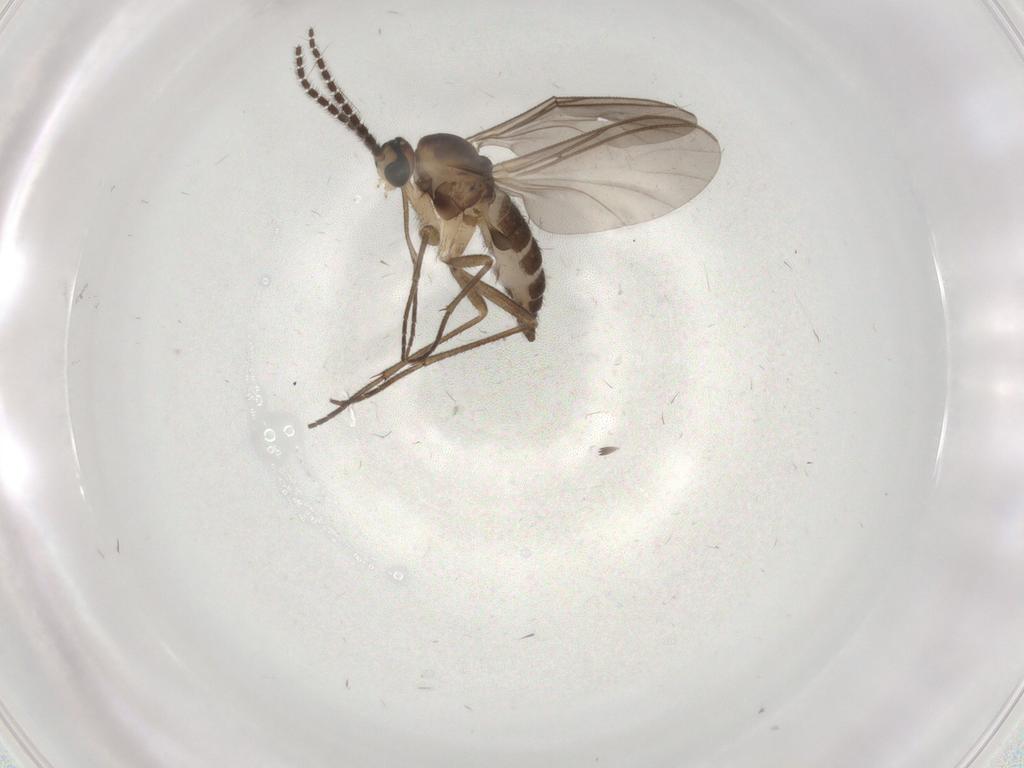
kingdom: Animalia
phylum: Arthropoda
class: Insecta
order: Diptera
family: Sciaridae
